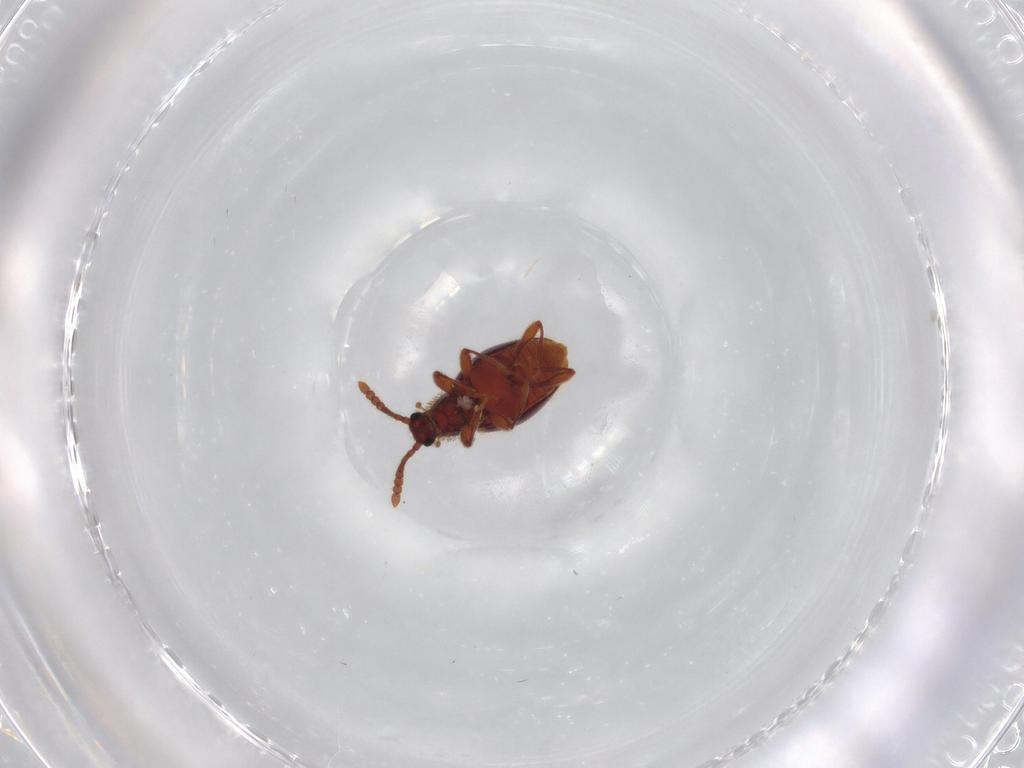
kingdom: Animalia
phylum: Arthropoda
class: Insecta
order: Coleoptera
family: Staphylinidae
